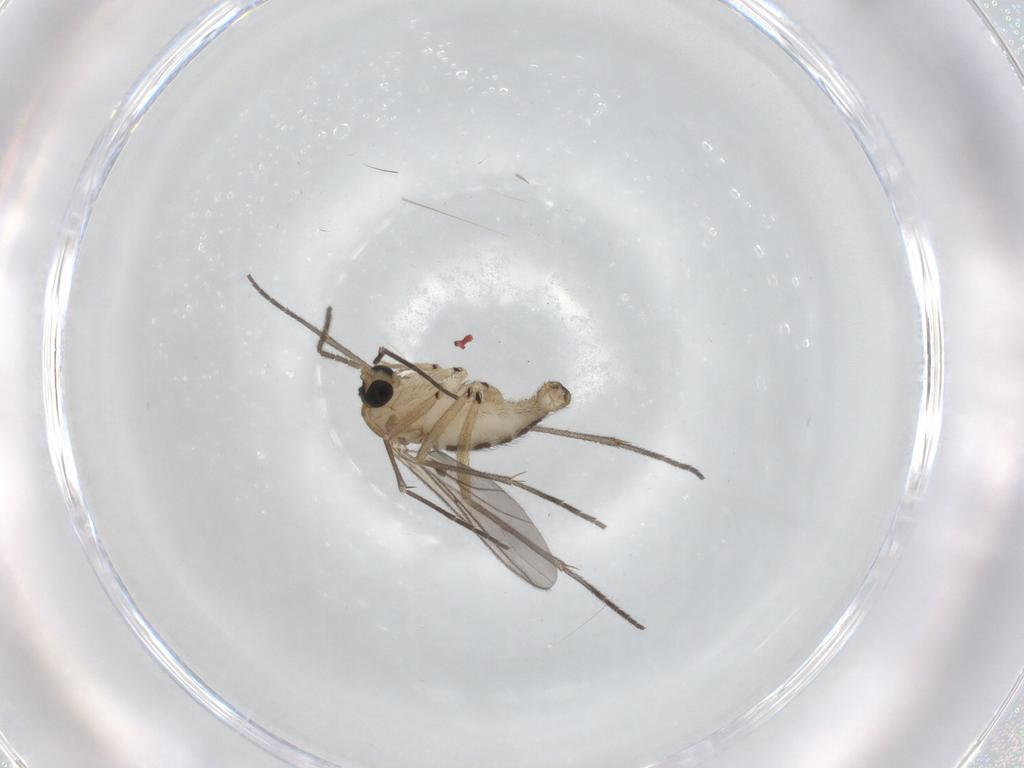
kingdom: Animalia
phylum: Arthropoda
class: Insecta
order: Diptera
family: Sciaridae
